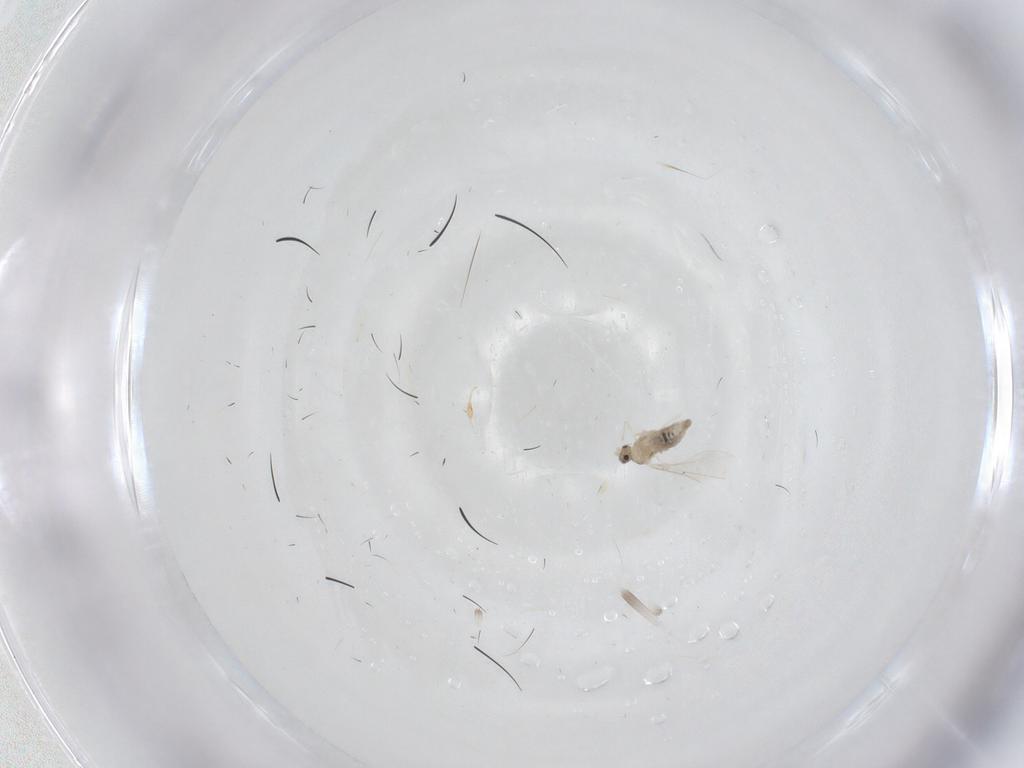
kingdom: Animalia
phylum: Arthropoda
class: Insecta
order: Diptera
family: Cecidomyiidae
